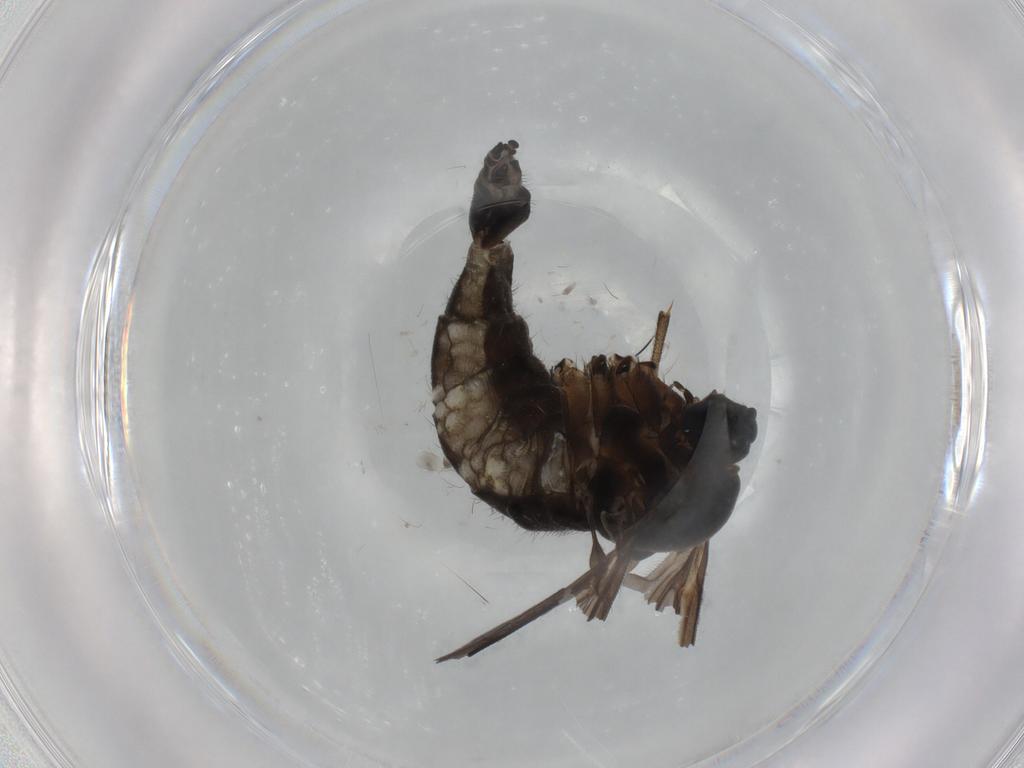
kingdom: Animalia
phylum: Arthropoda
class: Insecta
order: Diptera
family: Sciaridae
